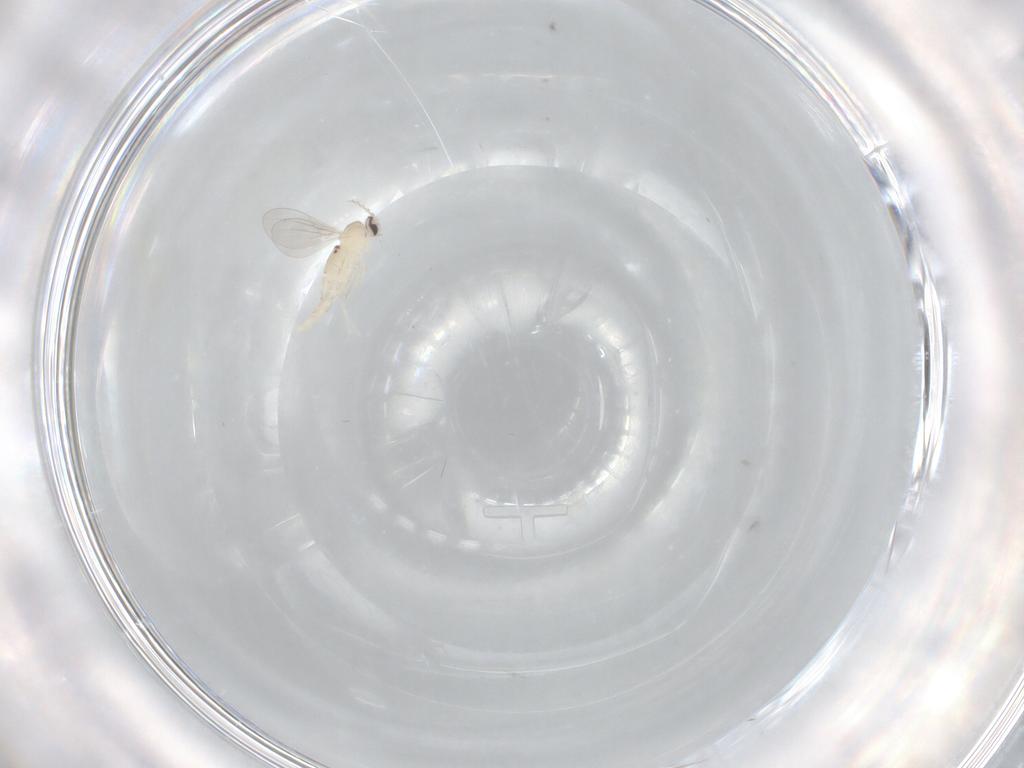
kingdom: Animalia
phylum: Arthropoda
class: Insecta
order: Diptera
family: Cecidomyiidae
